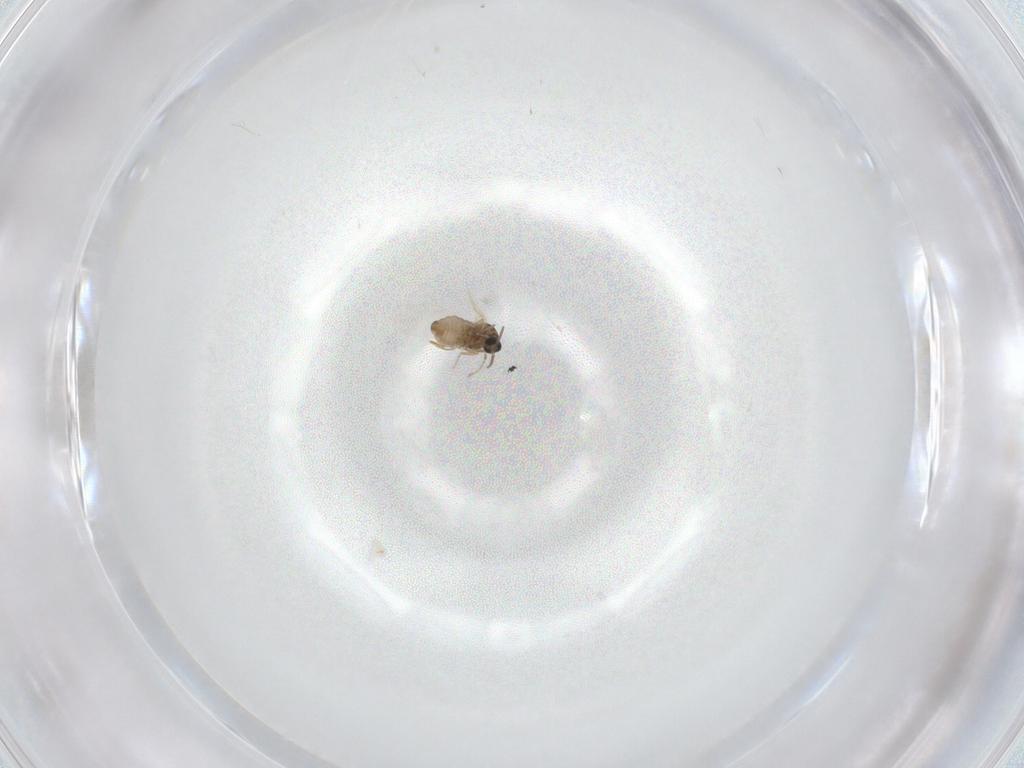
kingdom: Animalia
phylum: Arthropoda
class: Insecta
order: Diptera
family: Cecidomyiidae
